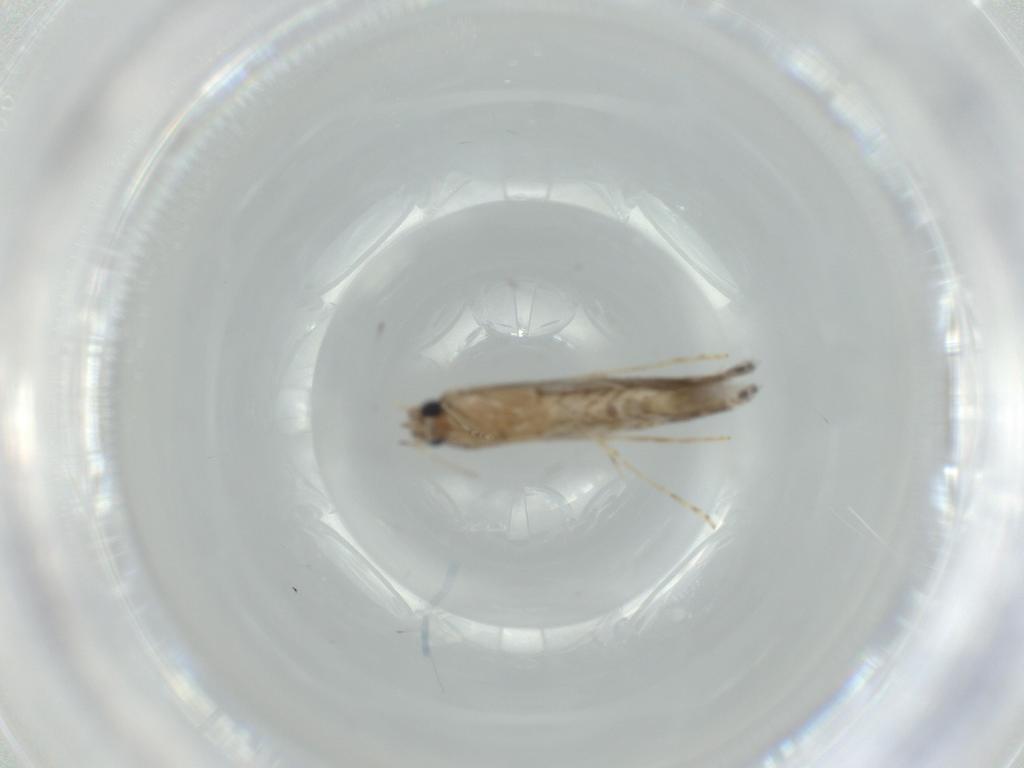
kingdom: Animalia
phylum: Arthropoda
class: Insecta
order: Lepidoptera
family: Gracillariidae
